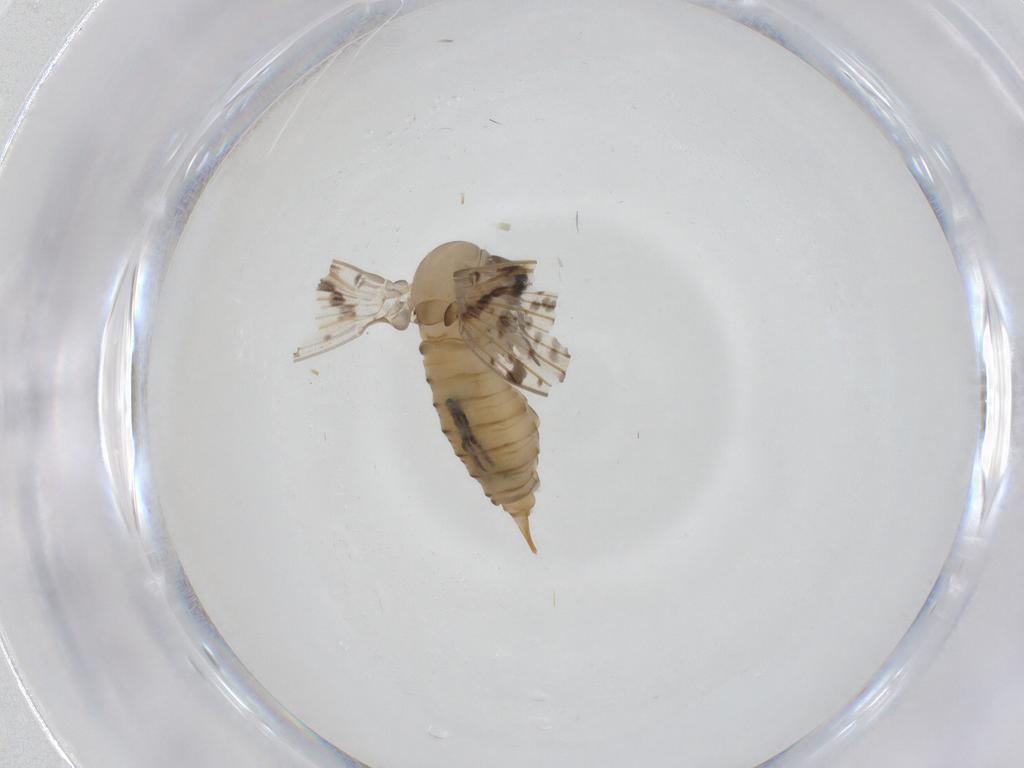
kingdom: Animalia
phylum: Arthropoda
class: Insecta
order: Diptera
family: Psychodidae
